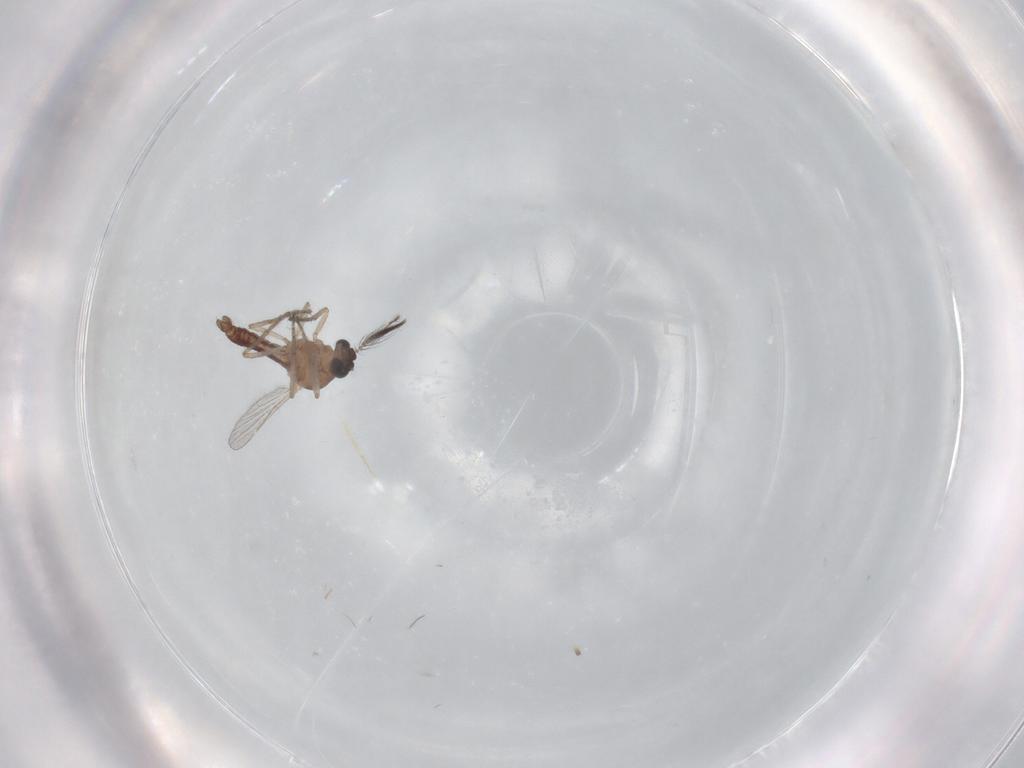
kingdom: Animalia
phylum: Arthropoda
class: Insecta
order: Diptera
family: Ceratopogonidae
